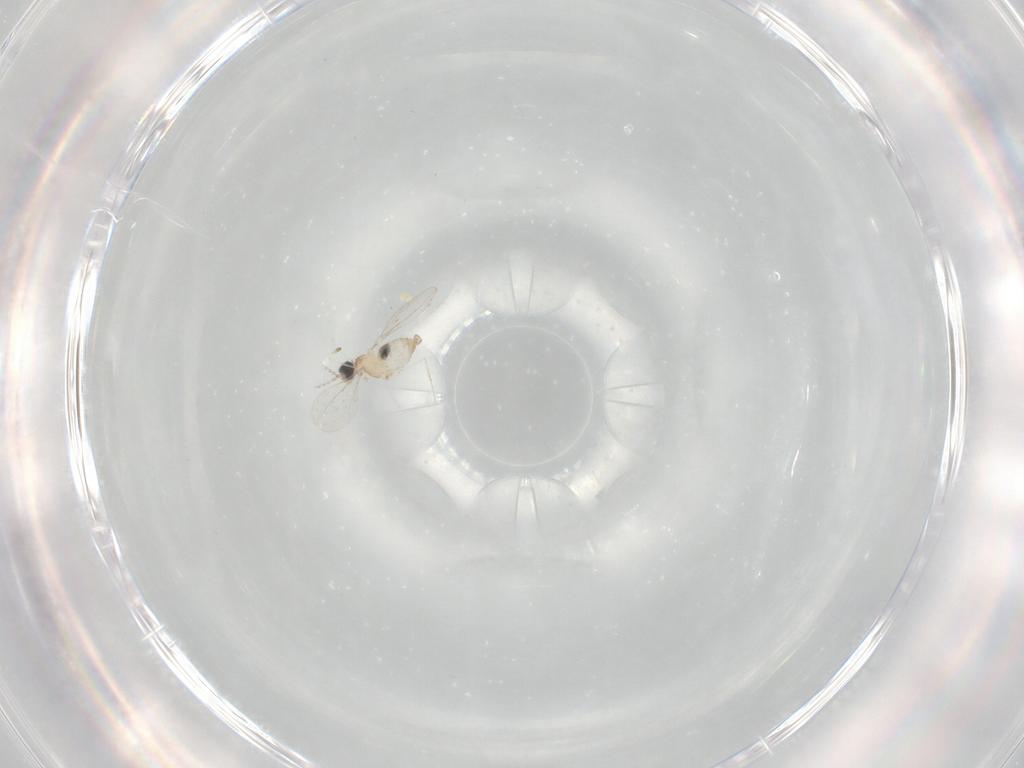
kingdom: Animalia
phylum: Arthropoda
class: Insecta
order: Diptera
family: Cecidomyiidae
